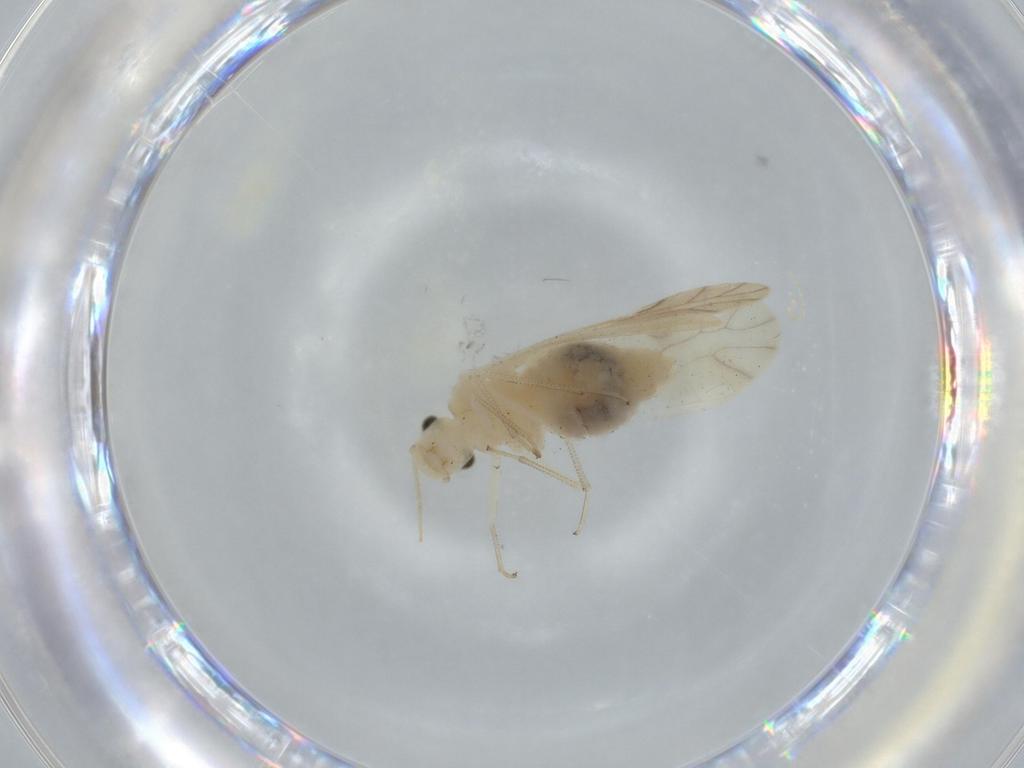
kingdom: Animalia
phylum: Arthropoda
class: Insecta
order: Psocodea
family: Caeciliusidae
